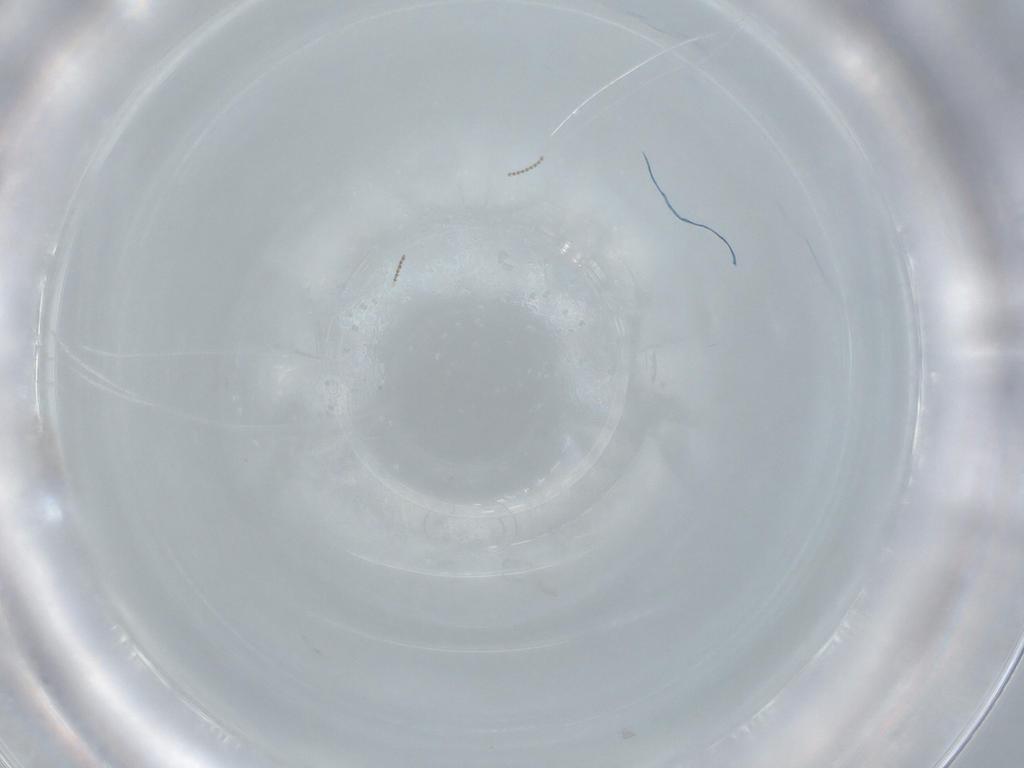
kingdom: Animalia
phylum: Arthropoda
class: Insecta
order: Diptera
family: Cecidomyiidae
